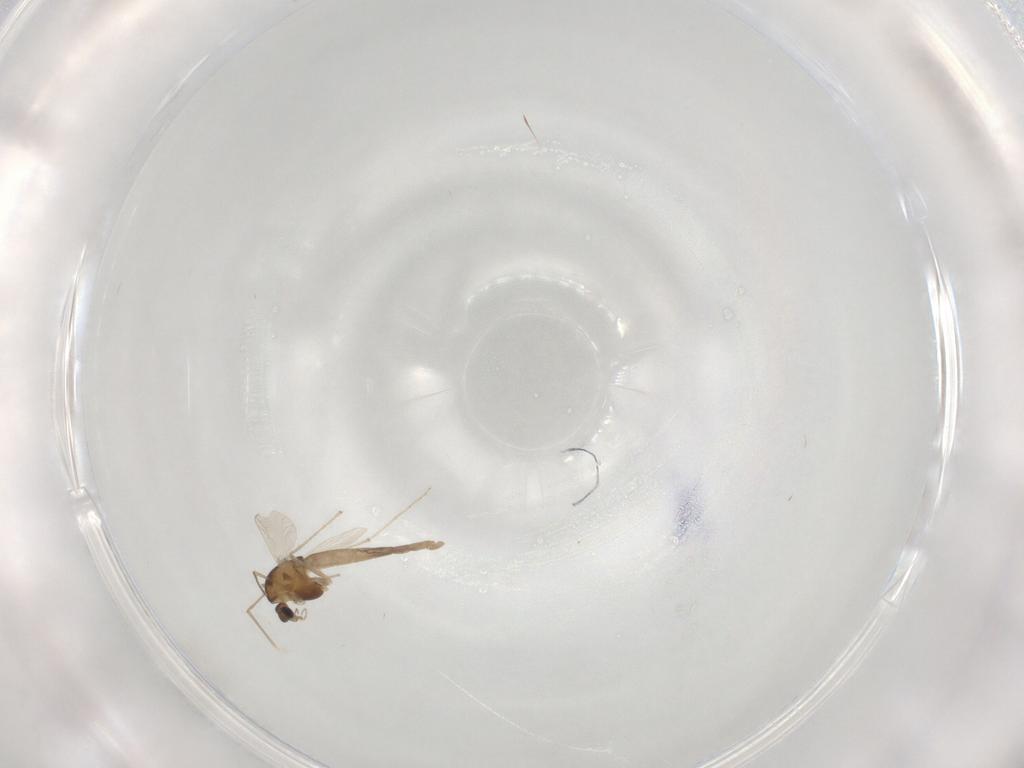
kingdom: Animalia
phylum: Arthropoda
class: Insecta
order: Diptera
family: Chironomidae
